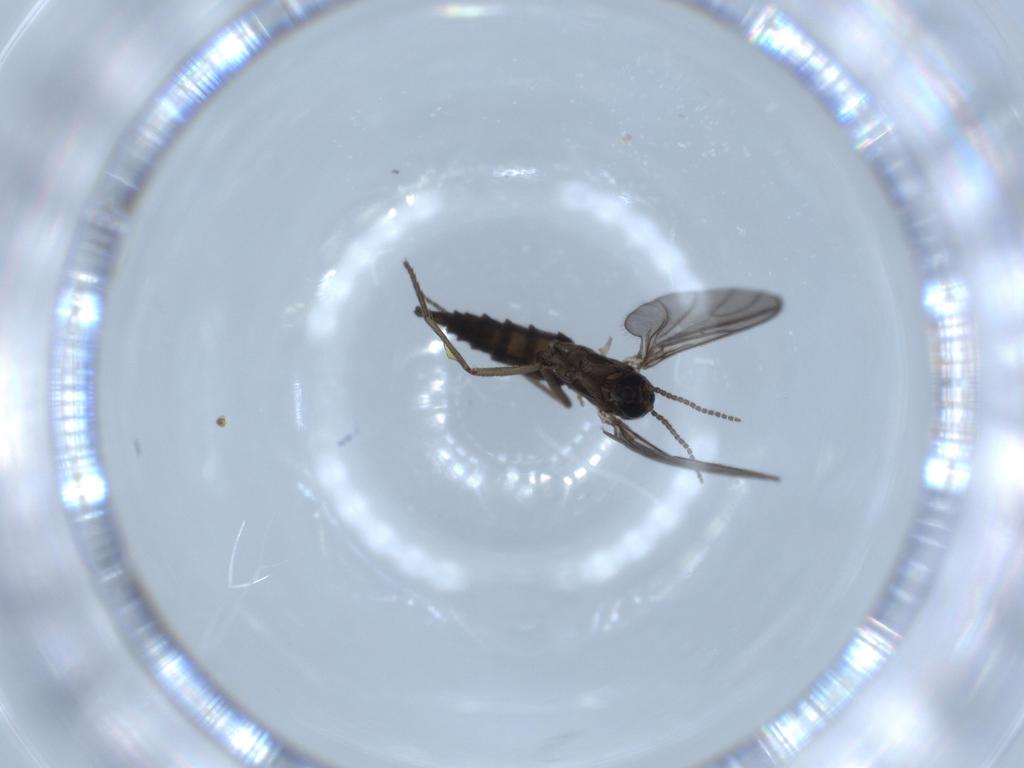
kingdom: Animalia
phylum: Arthropoda
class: Insecta
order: Diptera
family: Sciaridae
